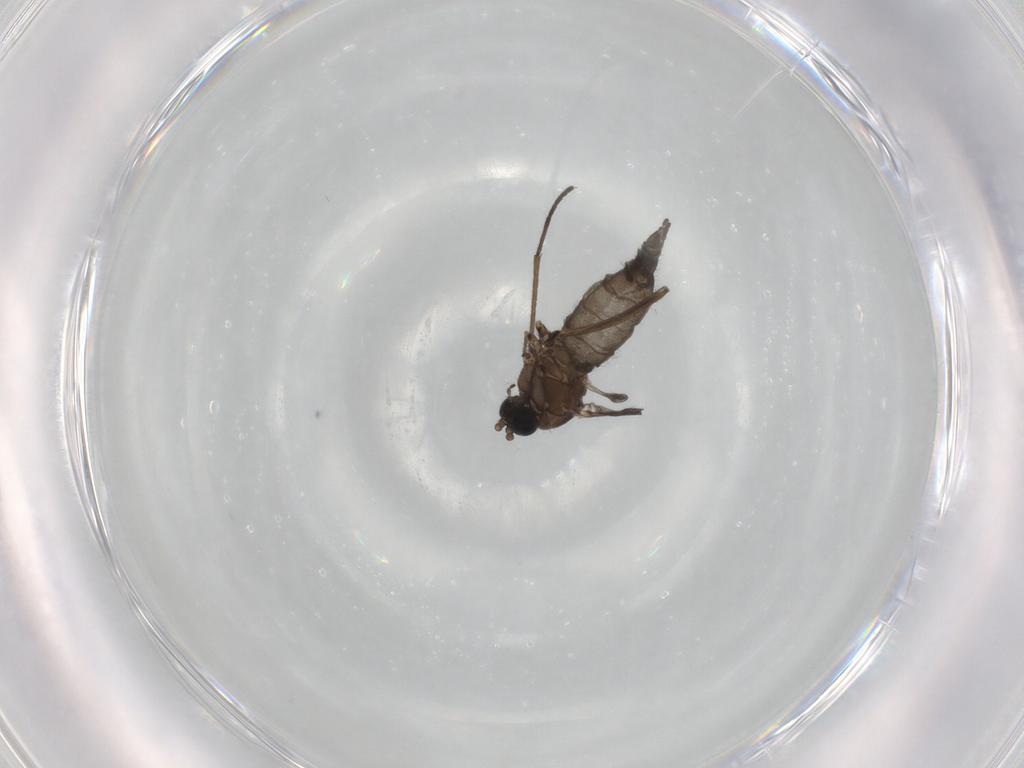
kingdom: Animalia
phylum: Arthropoda
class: Insecta
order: Diptera
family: Sciaridae
